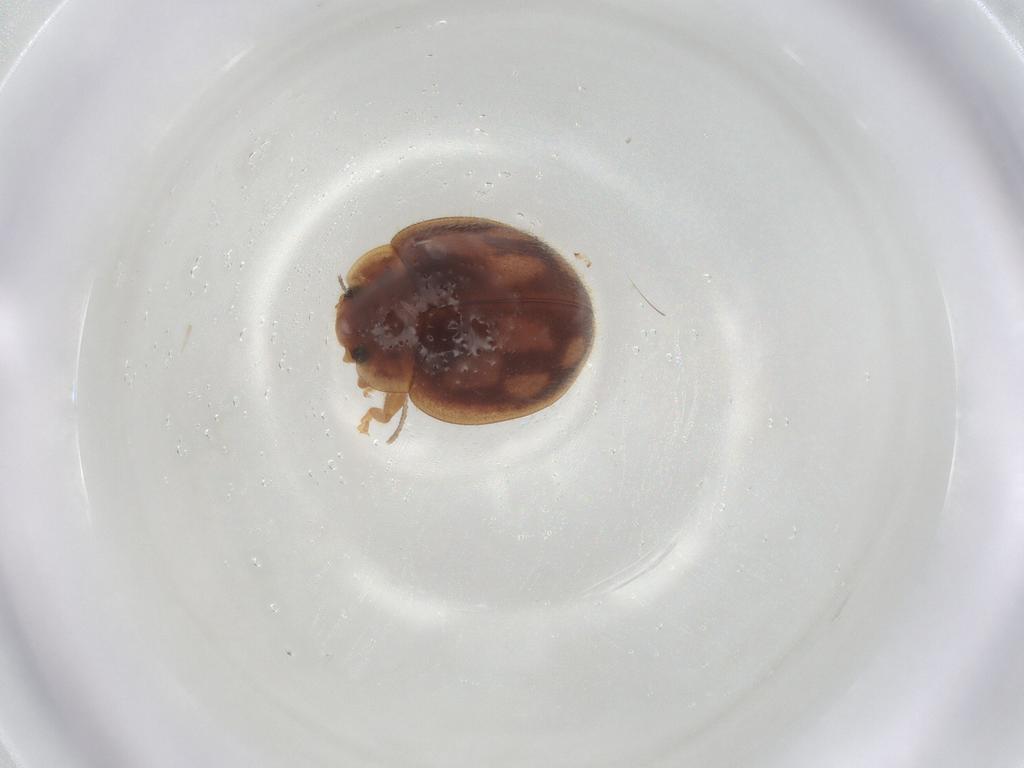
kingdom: Animalia
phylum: Arthropoda
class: Insecta
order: Coleoptera
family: Coccinellidae
